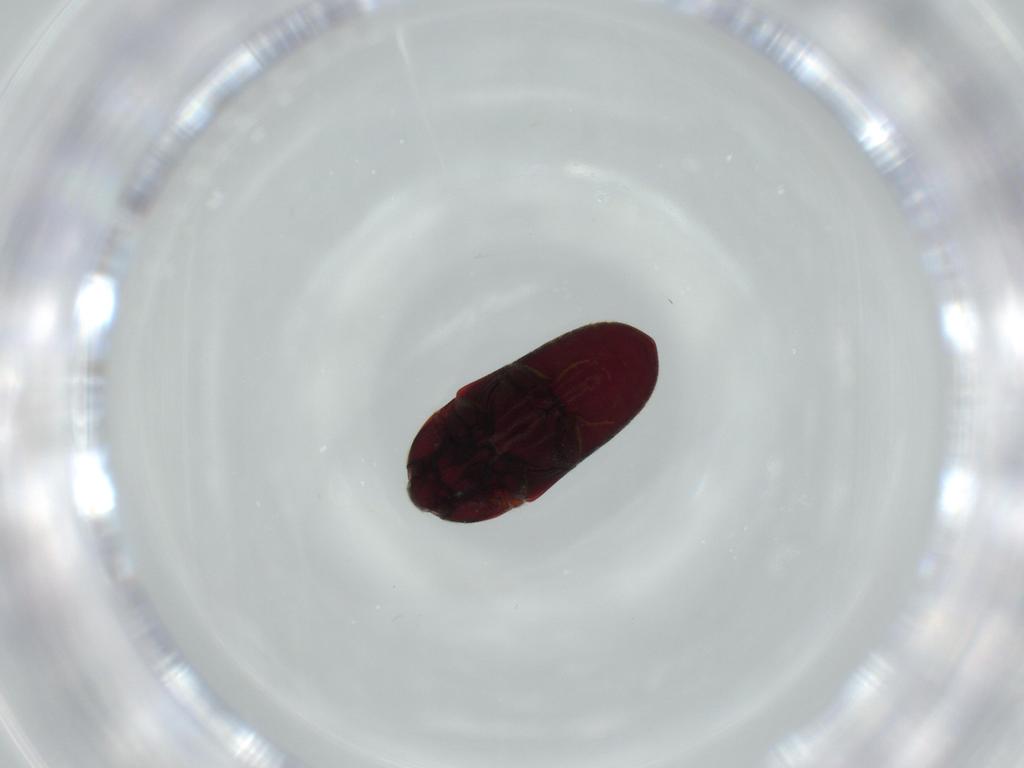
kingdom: Animalia
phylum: Arthropoda
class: Insecta
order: Coleoptera
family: Throscidae
